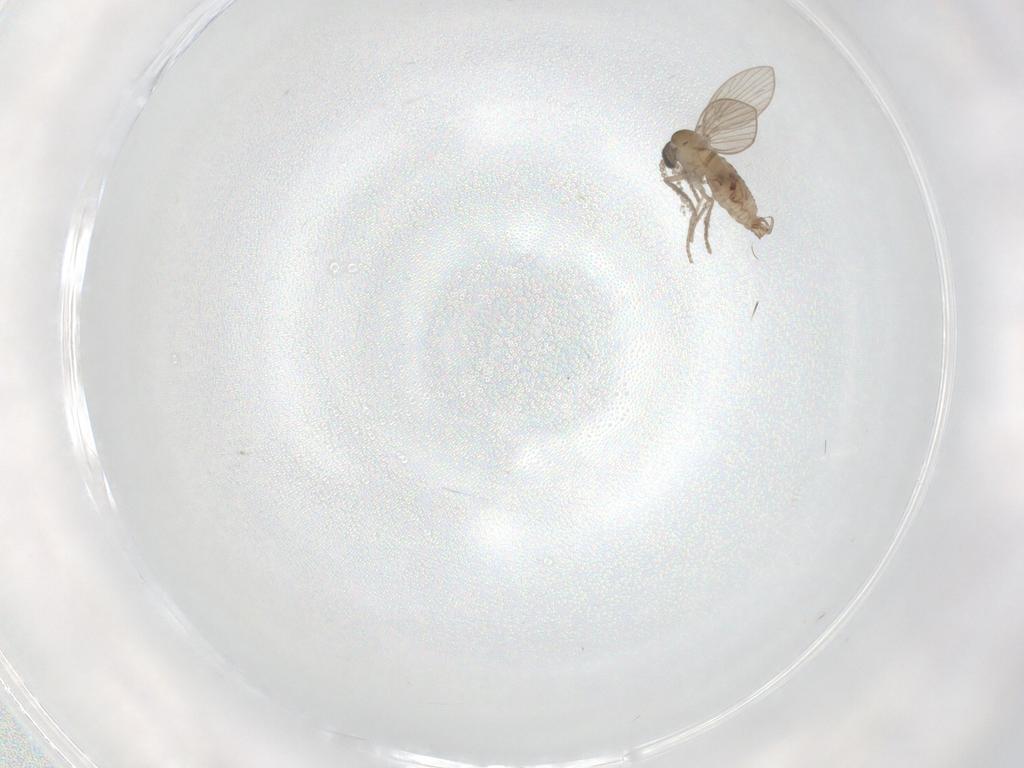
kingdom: Animalia
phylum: Arthropoda
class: Insecta
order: Diptera
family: Psychodidae
